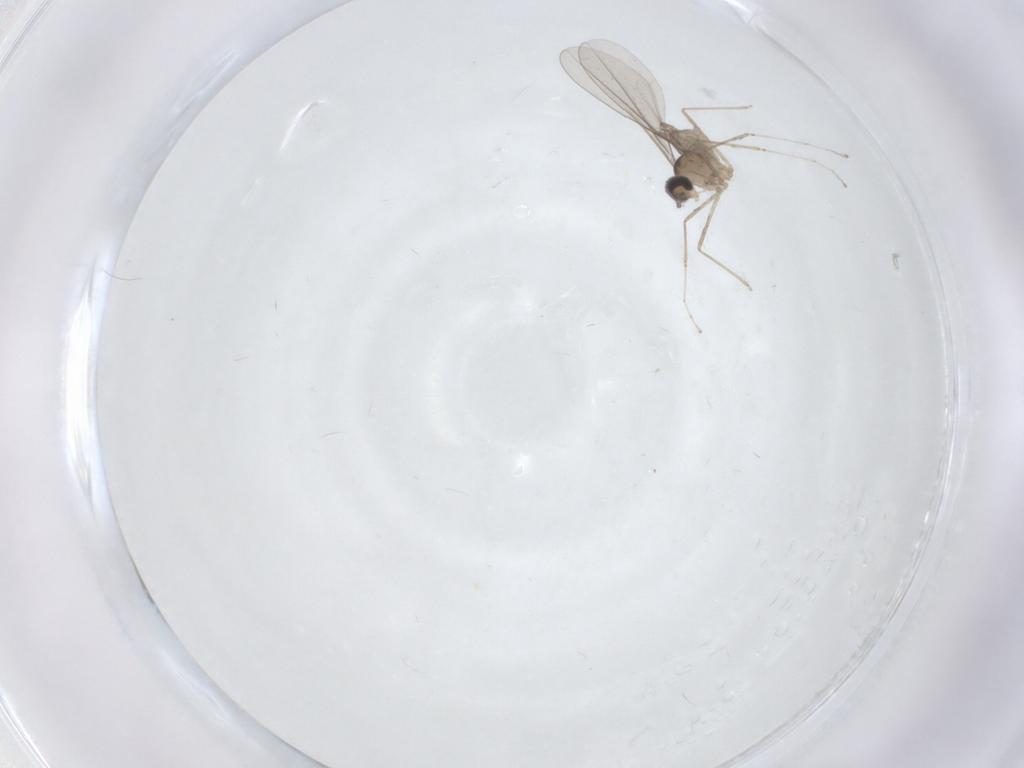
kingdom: Animalia
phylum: Arthropoda
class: Insecta
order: Diptera
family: Cecidomyiidae
